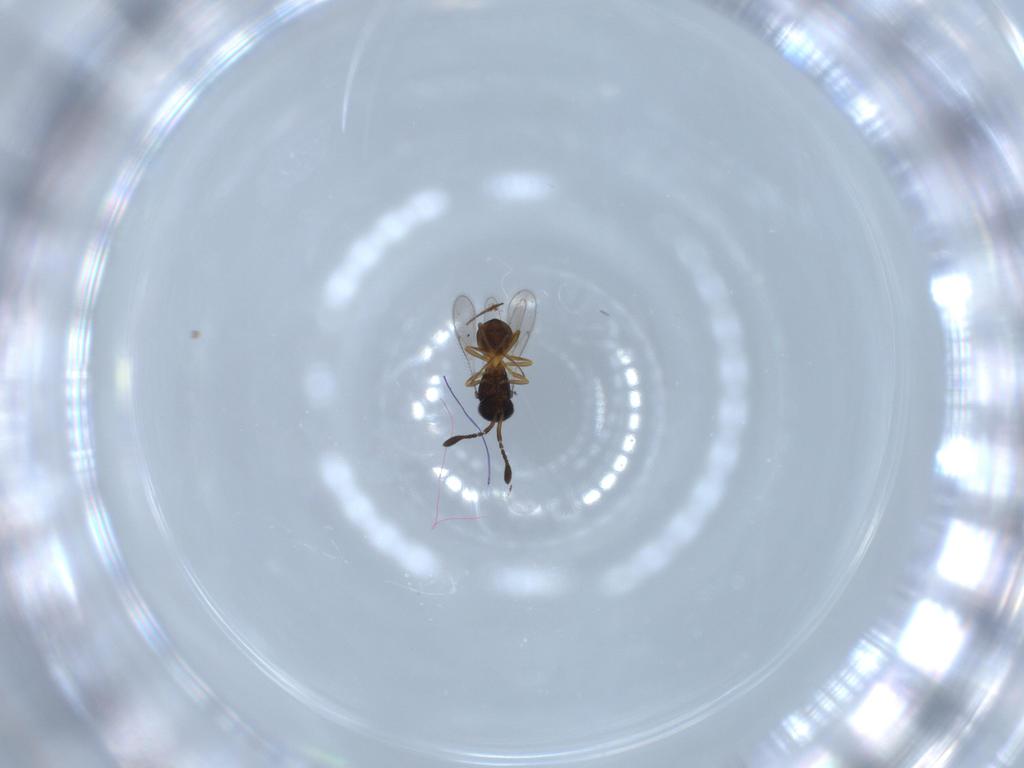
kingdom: Animalia
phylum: Arthropoda
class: Insecta
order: Hymenoptera
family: Scelionidae
